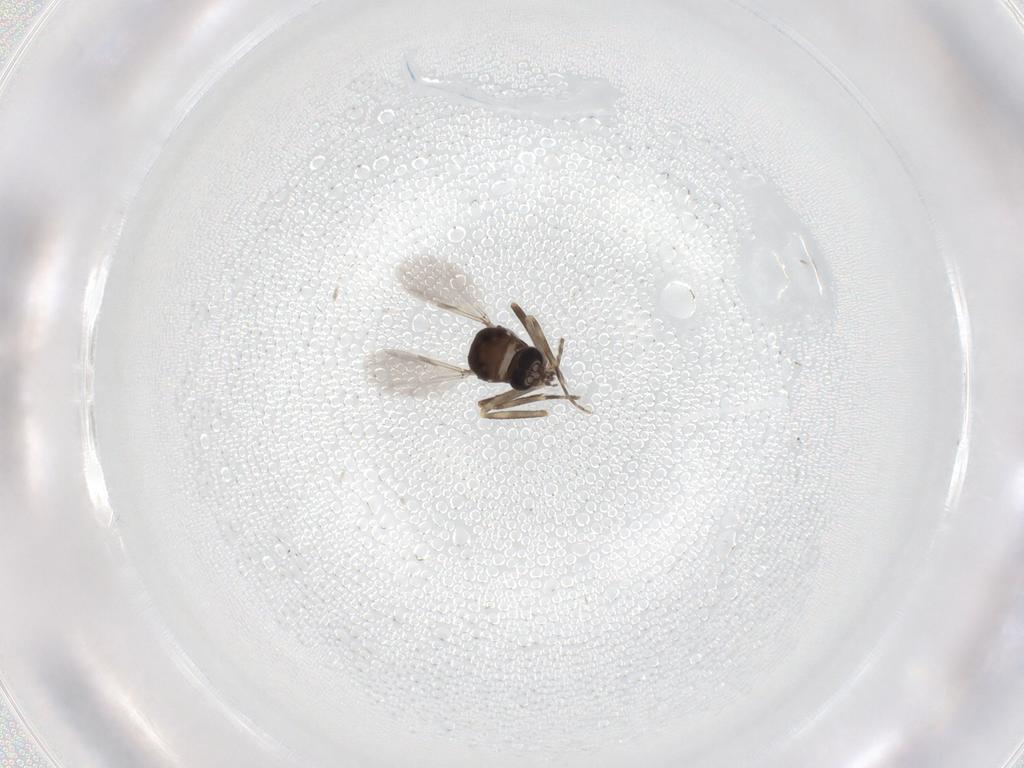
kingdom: Animalia
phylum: Arthropoda
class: Insecta
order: Diptera
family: Ceratopogonidae
